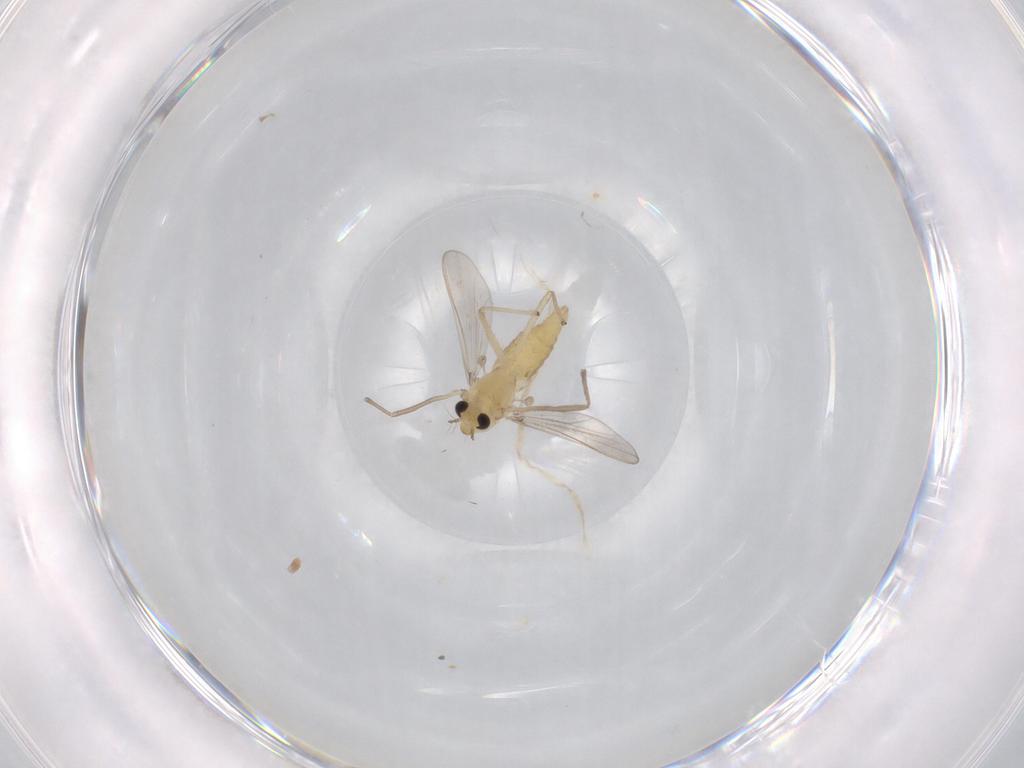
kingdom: Animalia
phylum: Arthropoda
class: Insecta
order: Diptera
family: Chironomidae
